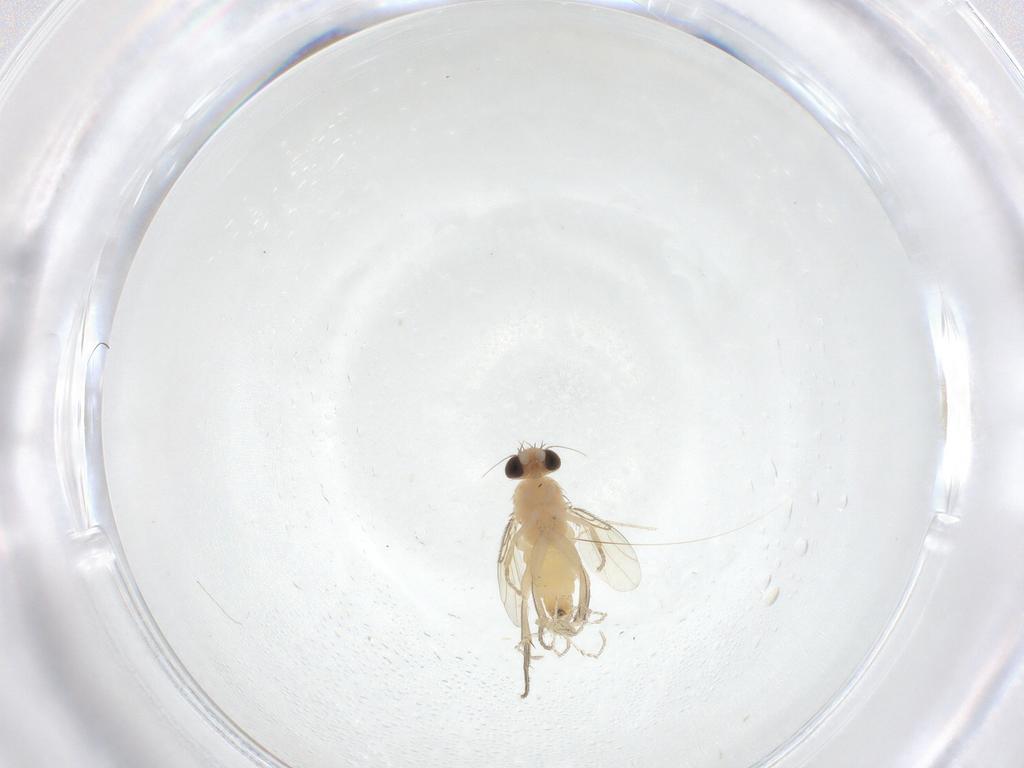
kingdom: Animalia
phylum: Arthropoda
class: Insecta
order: Diptera
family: Phoridae
